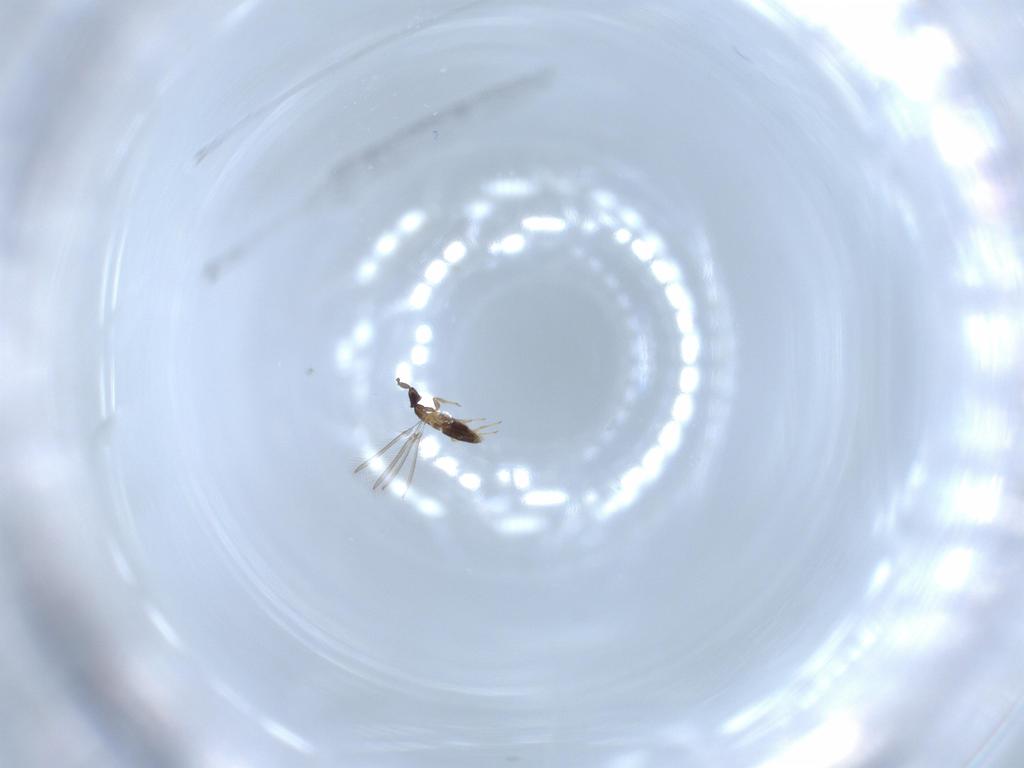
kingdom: Animalia
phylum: Arthropoda
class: Insecta
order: Hymenoptera
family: Mymaridae
